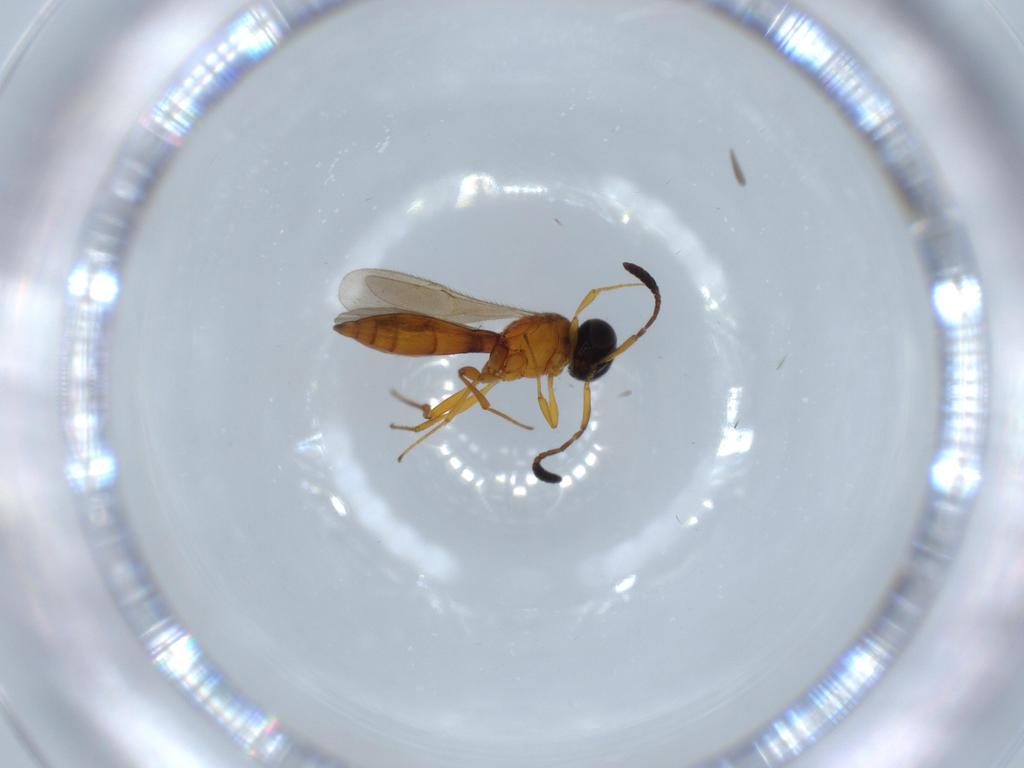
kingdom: Animalia
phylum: Arthropoda
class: Insecta
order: Hymenoptera
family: Scelionidae
